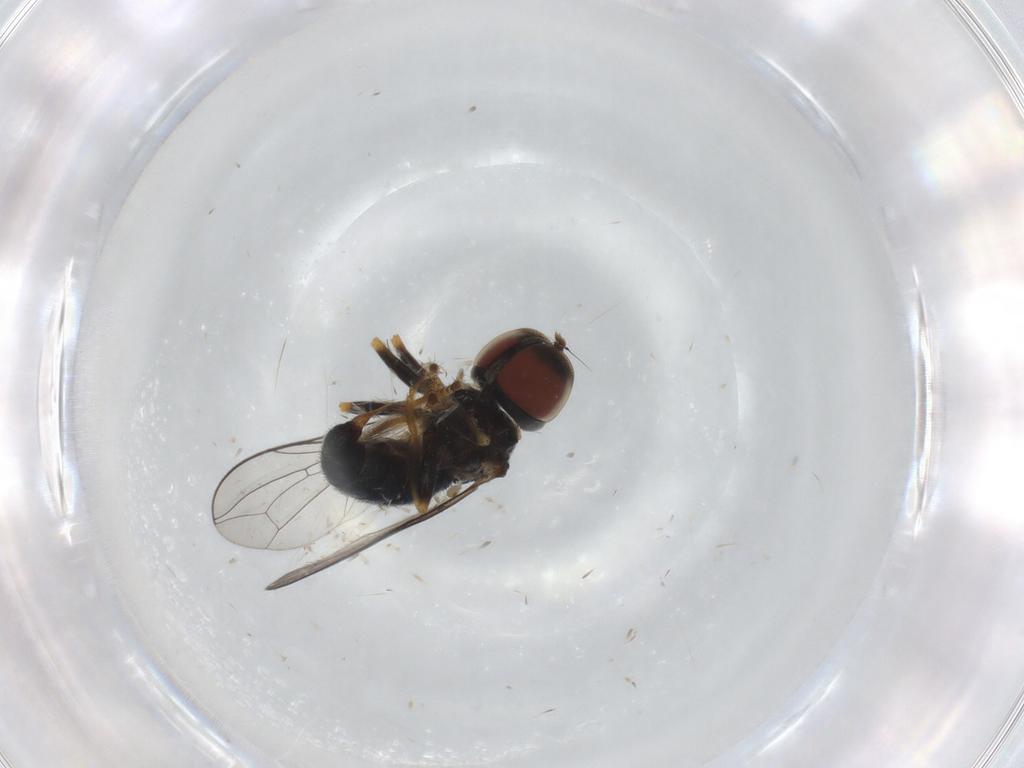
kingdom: Animalia
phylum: Arthropoda
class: Insecta
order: Diptera
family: Pipunculidae
